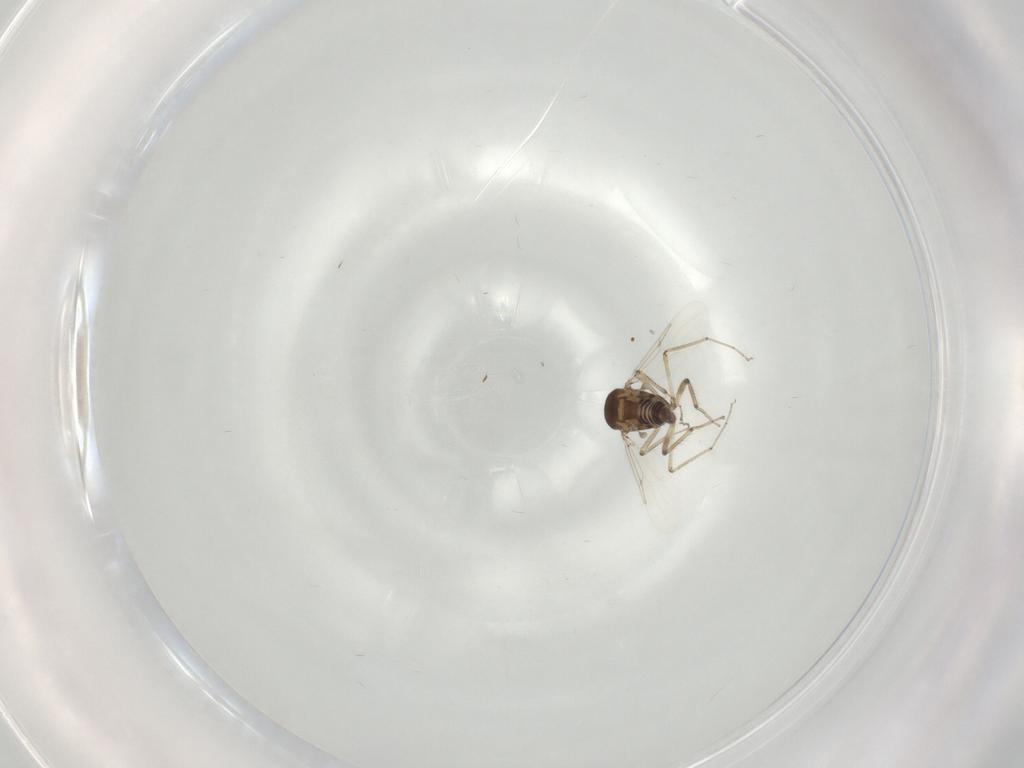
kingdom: Animalia
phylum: Arthropoda
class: Insecta
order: Diptera
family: Ceratopogonidae
